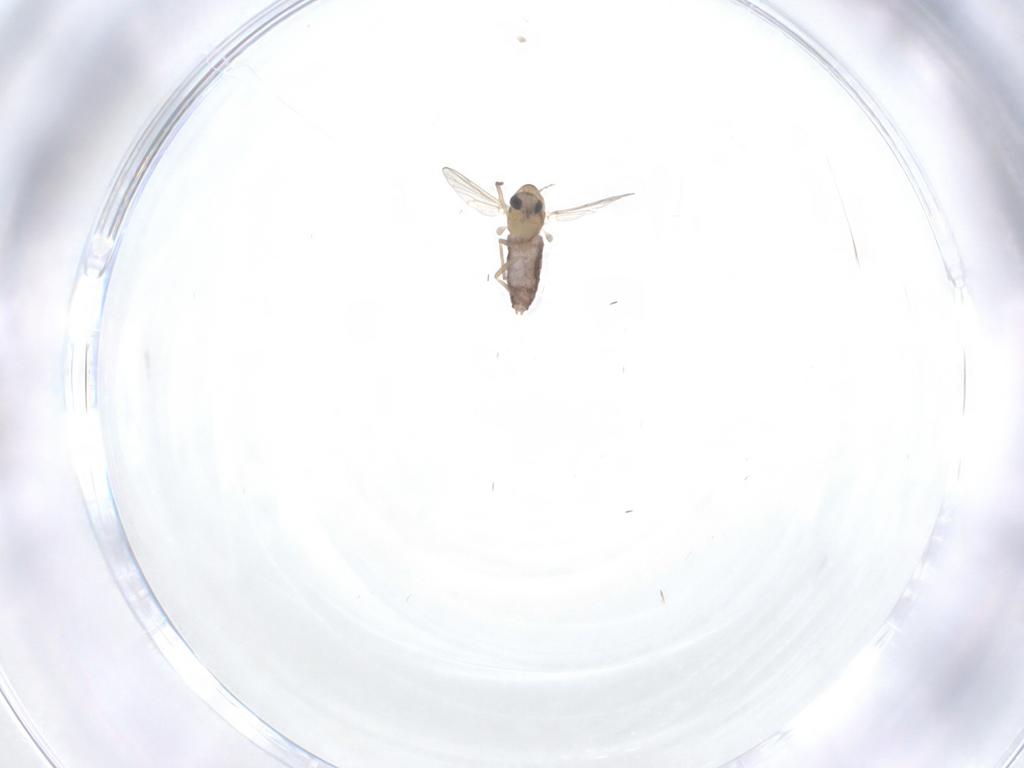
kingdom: Animalia
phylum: Arthropoda
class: Insecta
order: Diptera
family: Chironomidae
